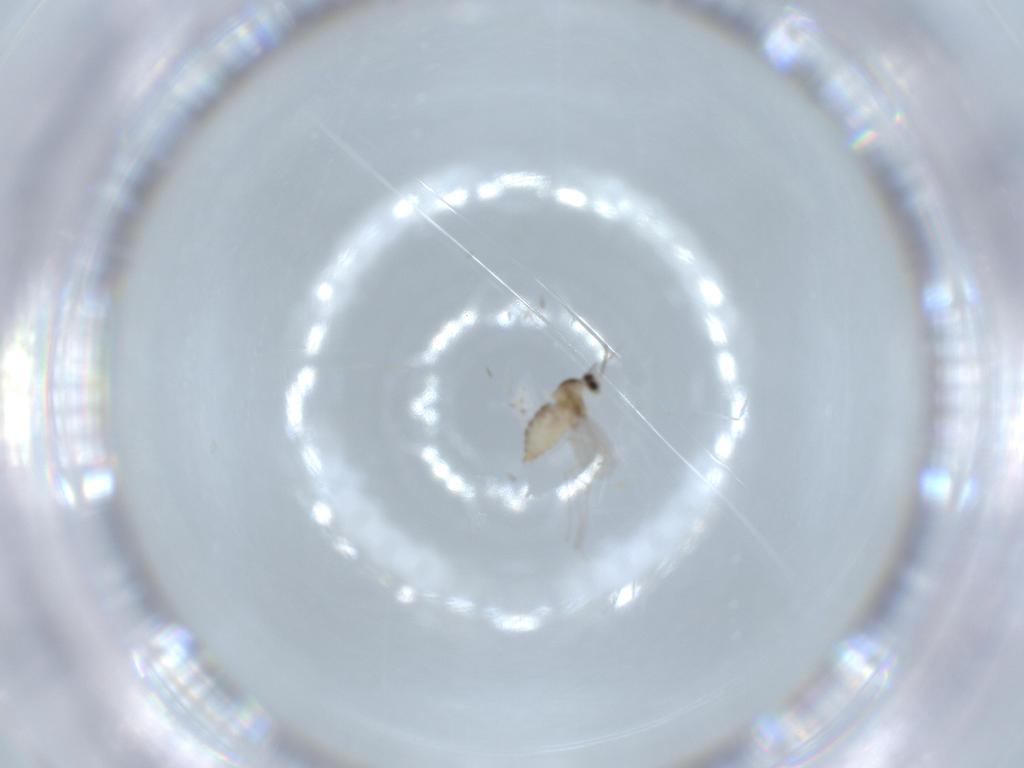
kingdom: Animalia
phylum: Arthropoda
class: Insecta
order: Diptera
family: Cecidomyiidae
